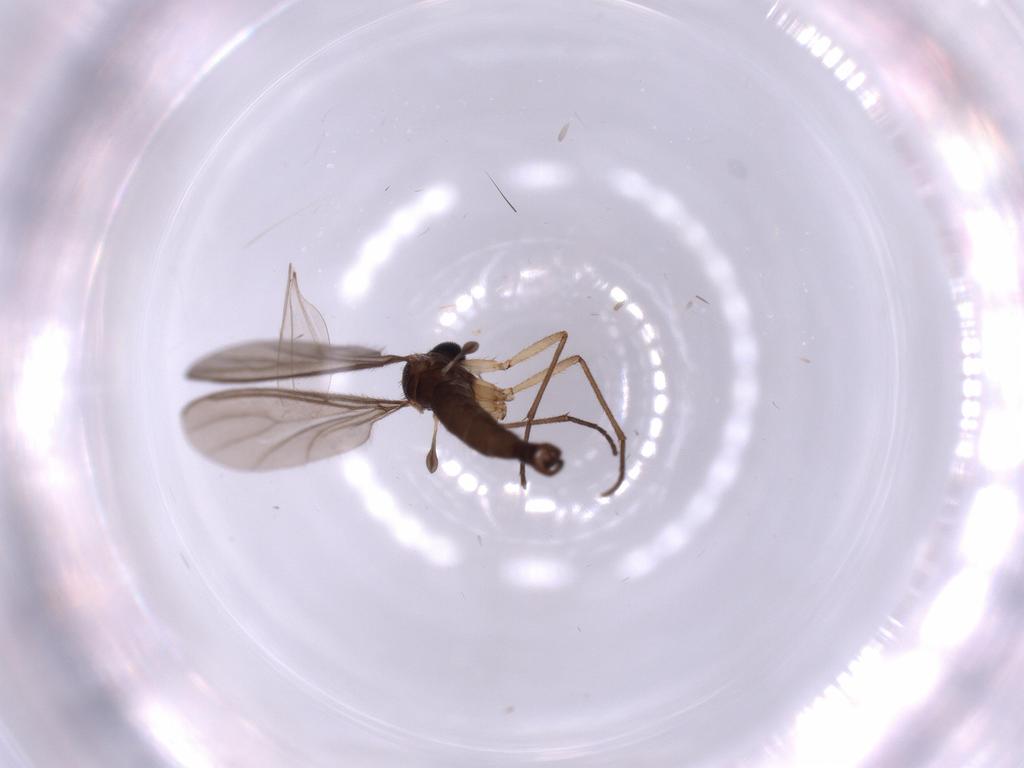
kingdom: Animalia
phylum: Arthropoda
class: Insecta
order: Diptera
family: Sciaridae
